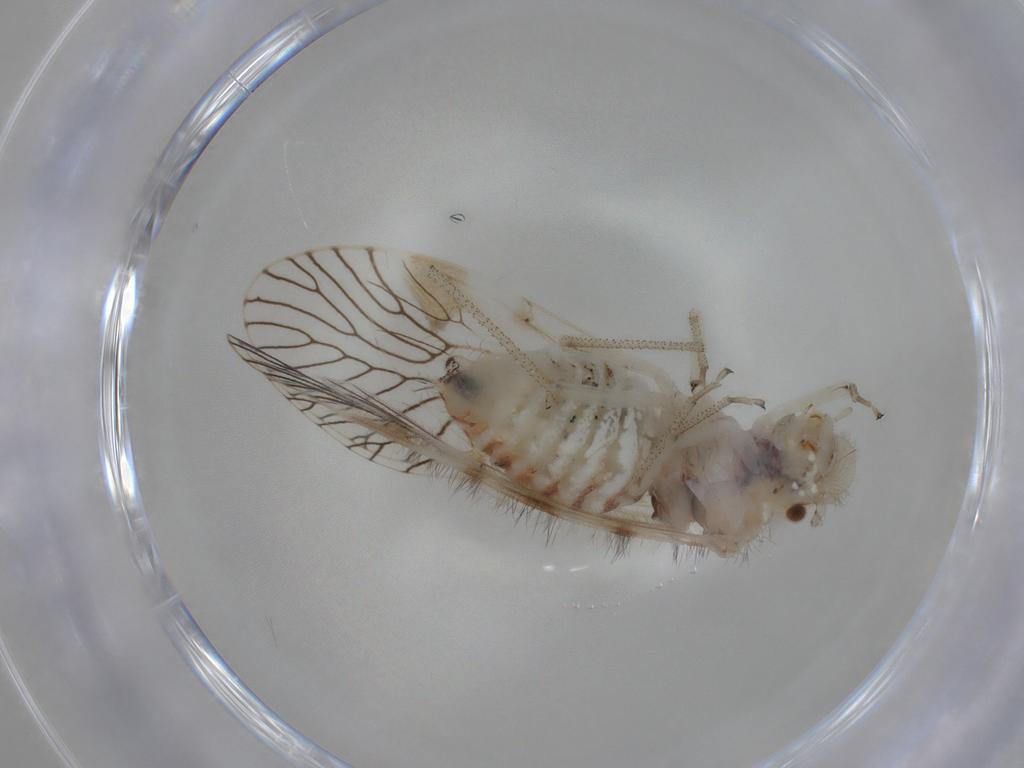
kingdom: Animalia
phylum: Arthropoda
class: Insecta
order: Psocodea
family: Amphipsocidae
